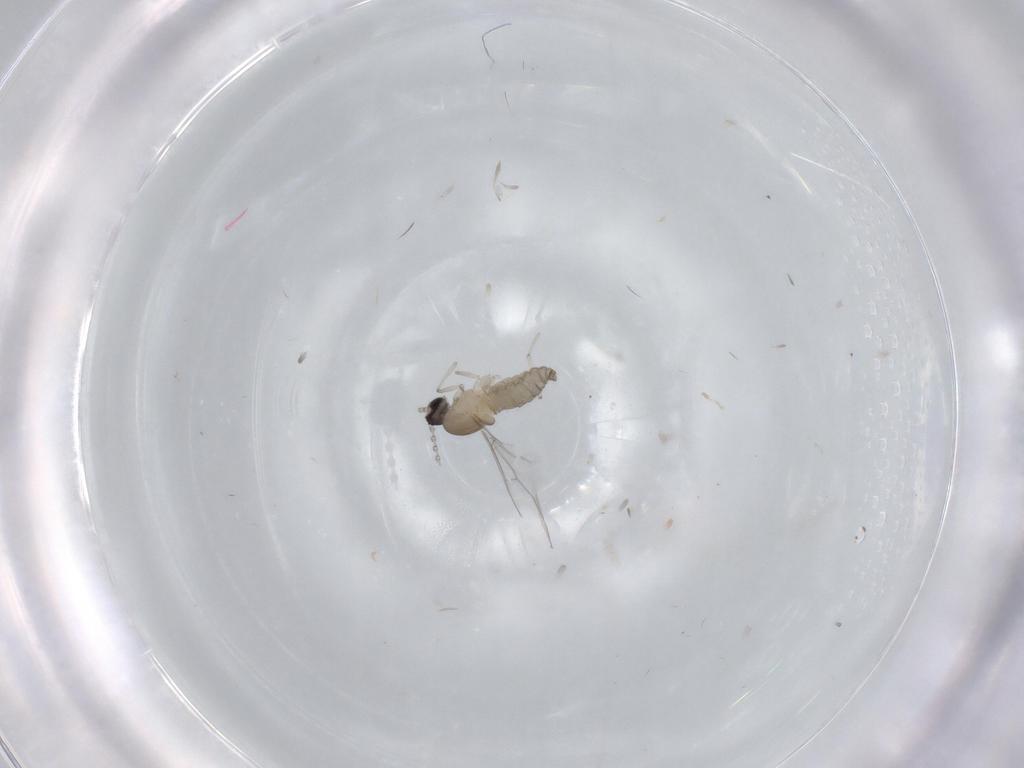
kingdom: Animalia
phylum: Arthropoda
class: Insecta
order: Diptera
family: Cecidomyiidae
